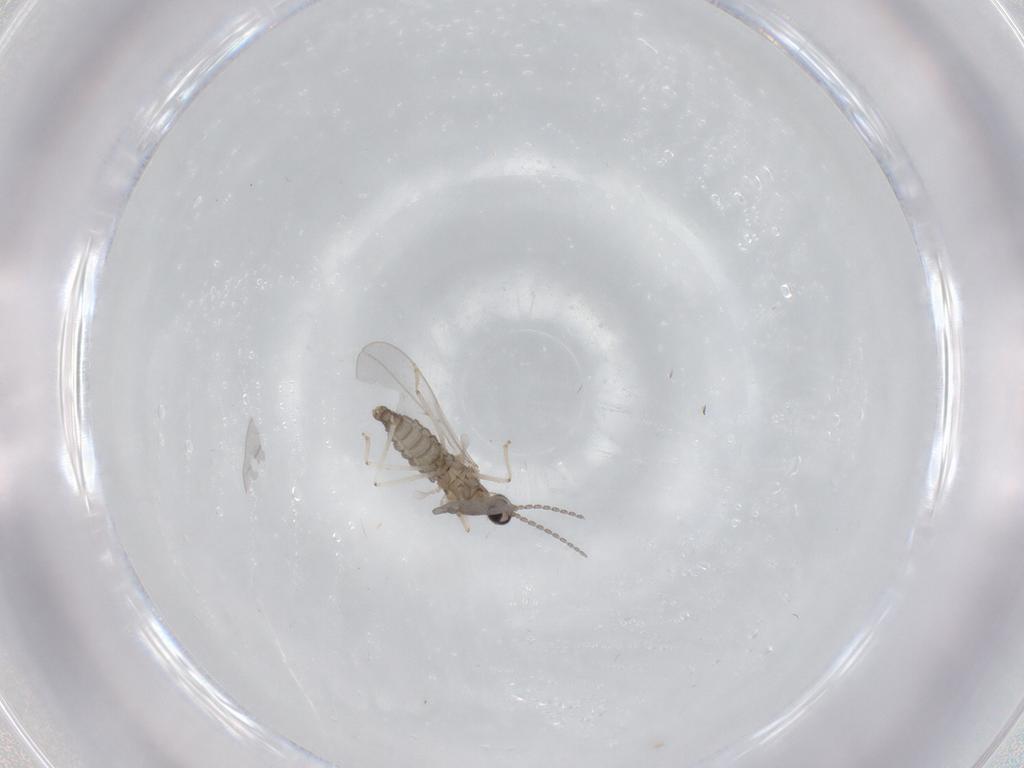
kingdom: Animalia
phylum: Arthropoda
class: Insecta
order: Diptera
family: Cecidomyiidae
